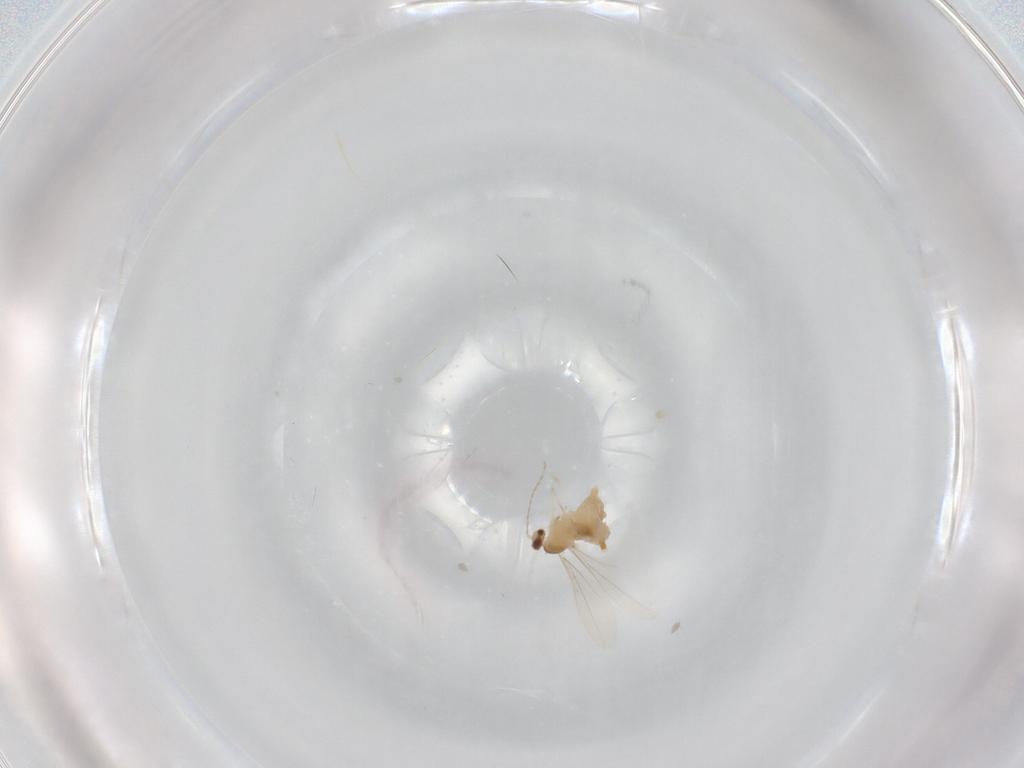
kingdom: Animalia
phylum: Arthropoda
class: Insecta
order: Diptera
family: Cecidomyiidae
